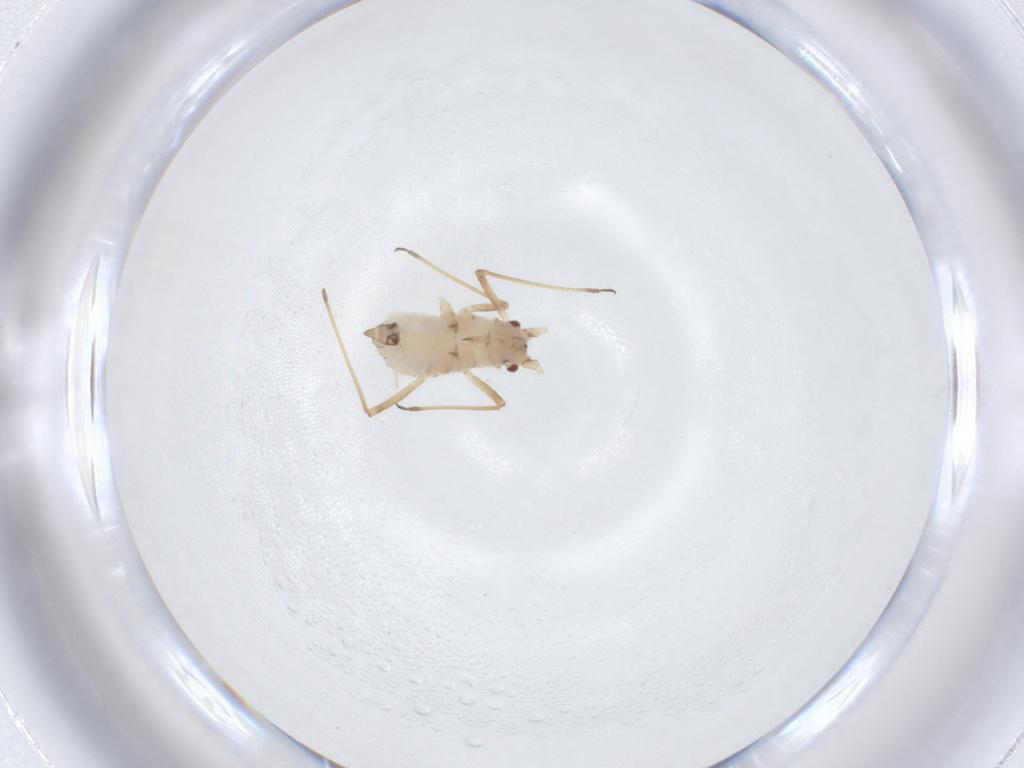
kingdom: Animalia
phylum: Arthropoda
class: Insecta
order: Hemiptera
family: Aphididae
